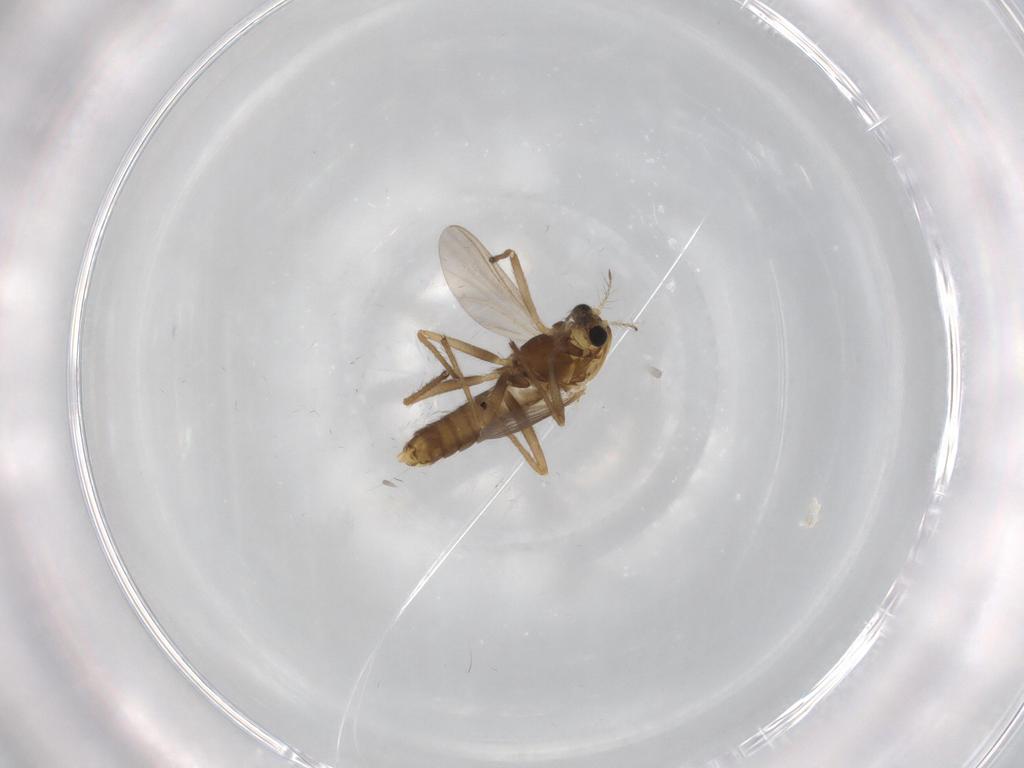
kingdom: Animalia
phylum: Arthropoda
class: Insecta
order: Diptera
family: Chironomidae
